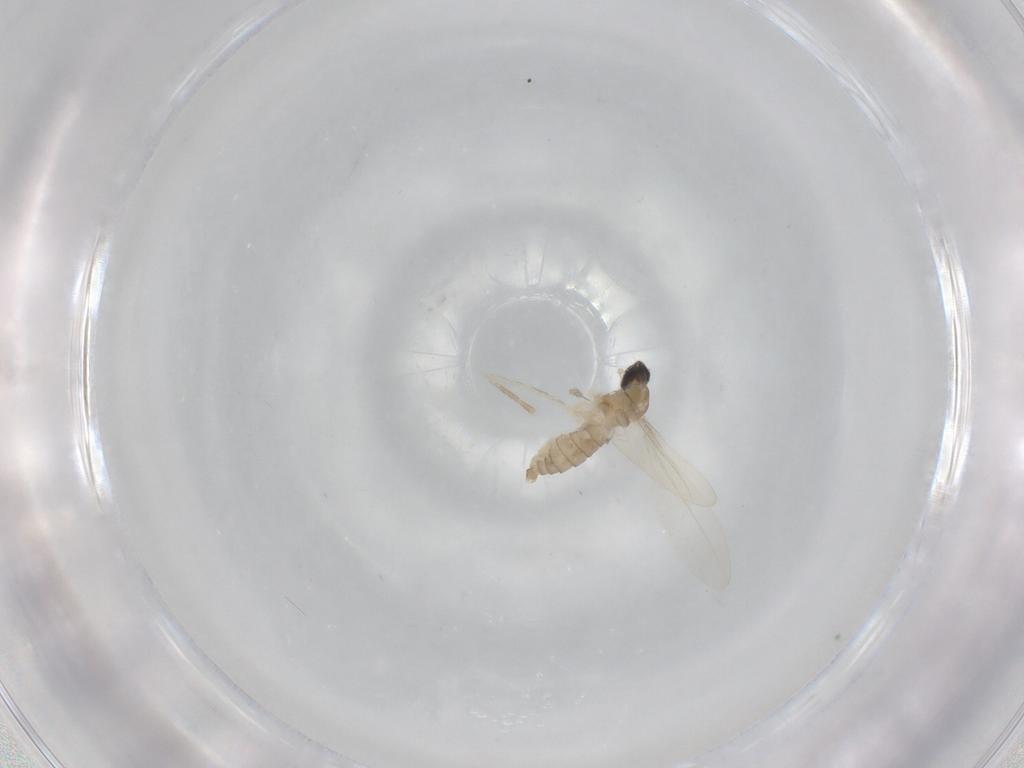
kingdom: Animalia
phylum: Arthropoda
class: Insecta
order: Diptera
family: Cecidomyiidae
